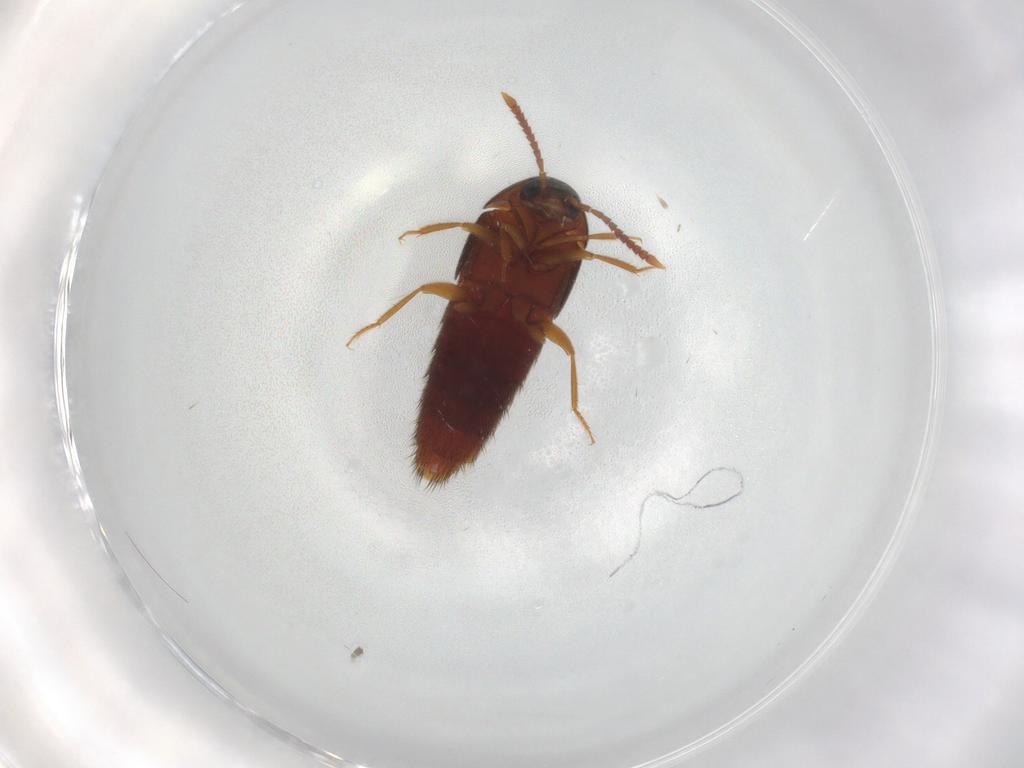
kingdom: Animalia
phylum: Arthropoda
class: Insecta
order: Coleoptera
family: Staphylinidae
